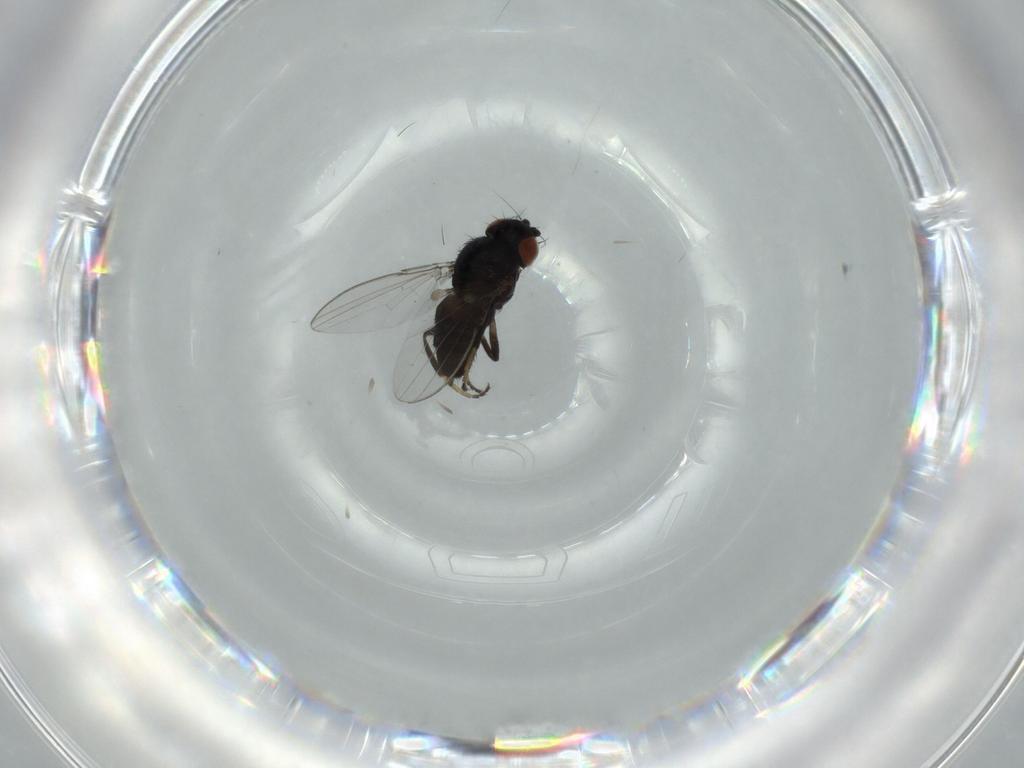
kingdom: Animalia
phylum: Arthropoda
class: Insecta
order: Diptera
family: Milichiidae
